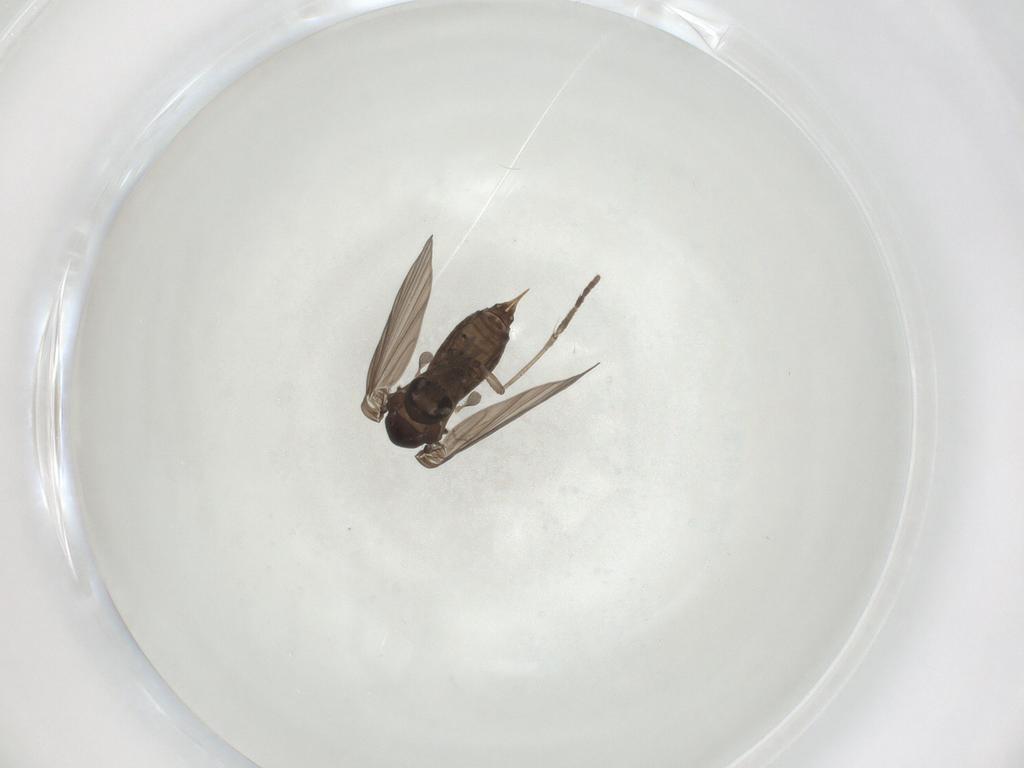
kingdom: Animalia
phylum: Arthropoda
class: Insecta
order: Diptera
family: Psychodidae
